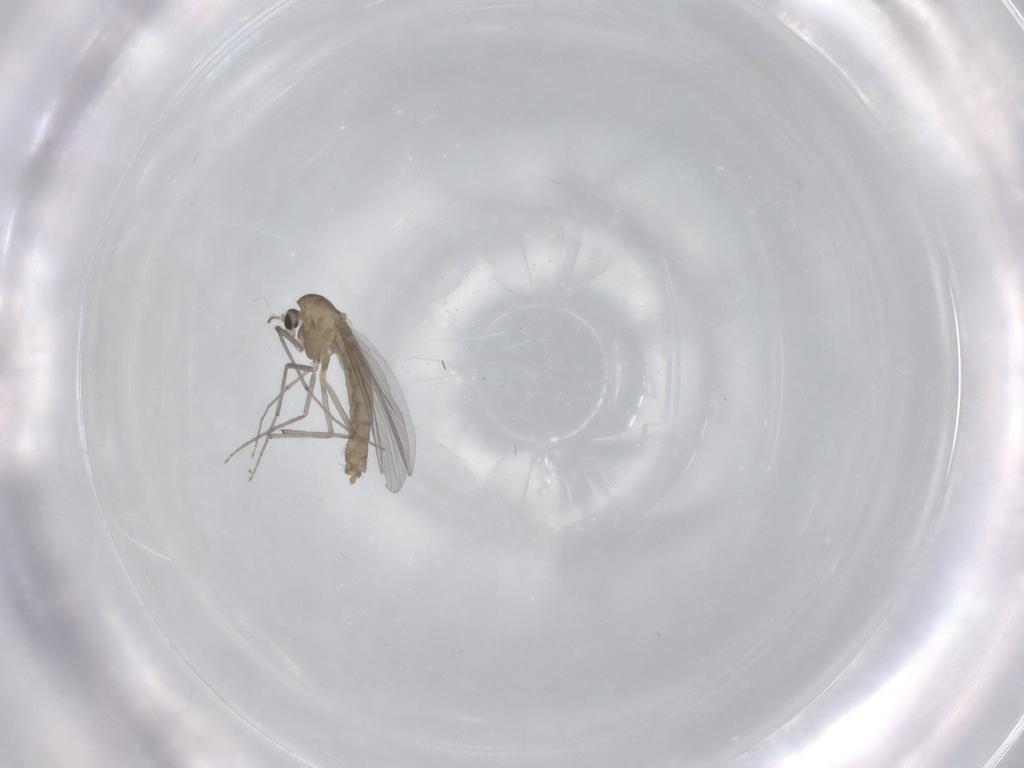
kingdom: Animalia
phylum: Arthropoda
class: Insecta
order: Diptera
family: Chironomidae
